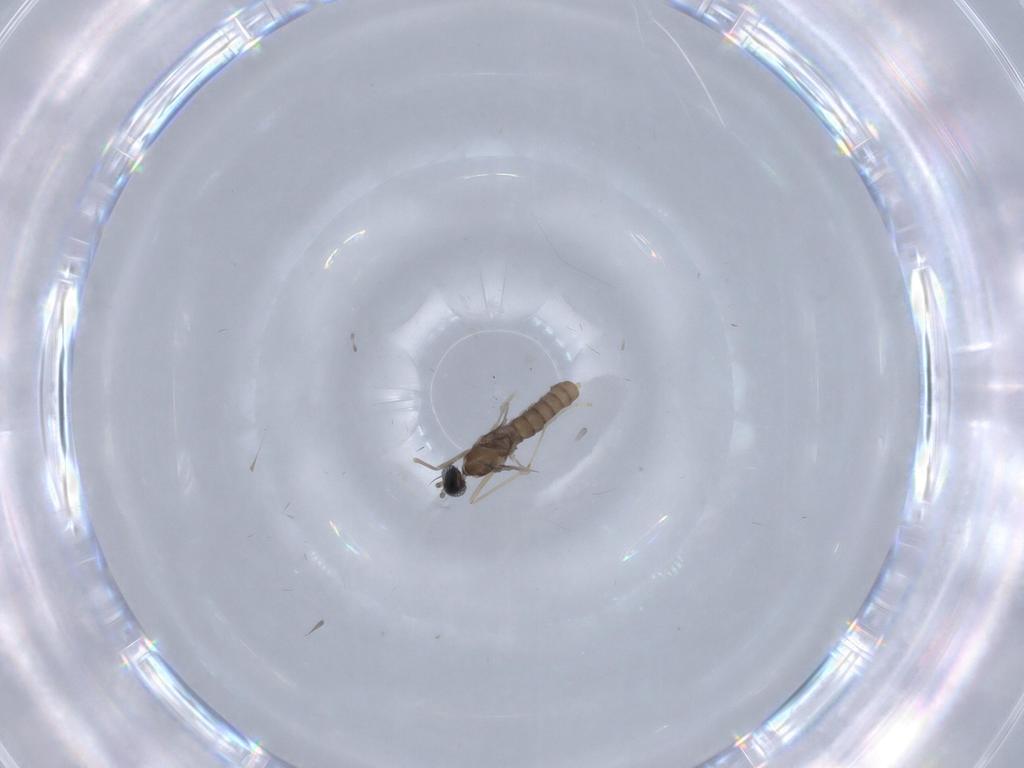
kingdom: Animalia
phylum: Arthropoda
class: Insecta
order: Diptera
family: Cecidomyiidae
